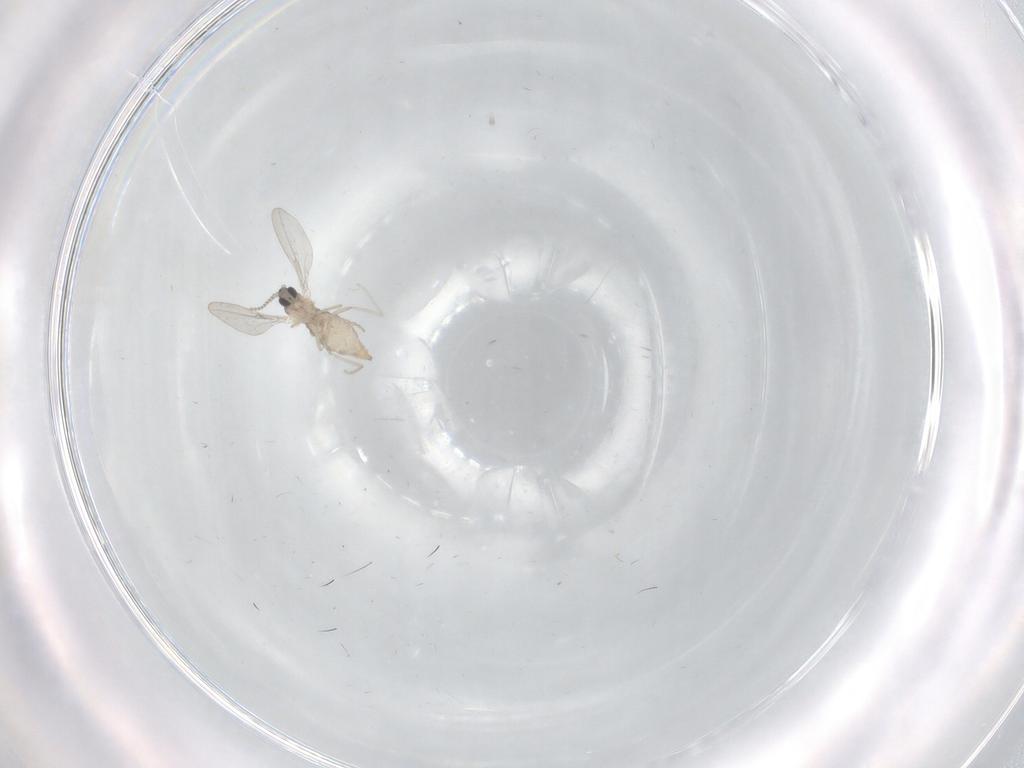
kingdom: Animalia
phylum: Arthropoda
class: Insecta
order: Diptera
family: Cecidomyiidae
